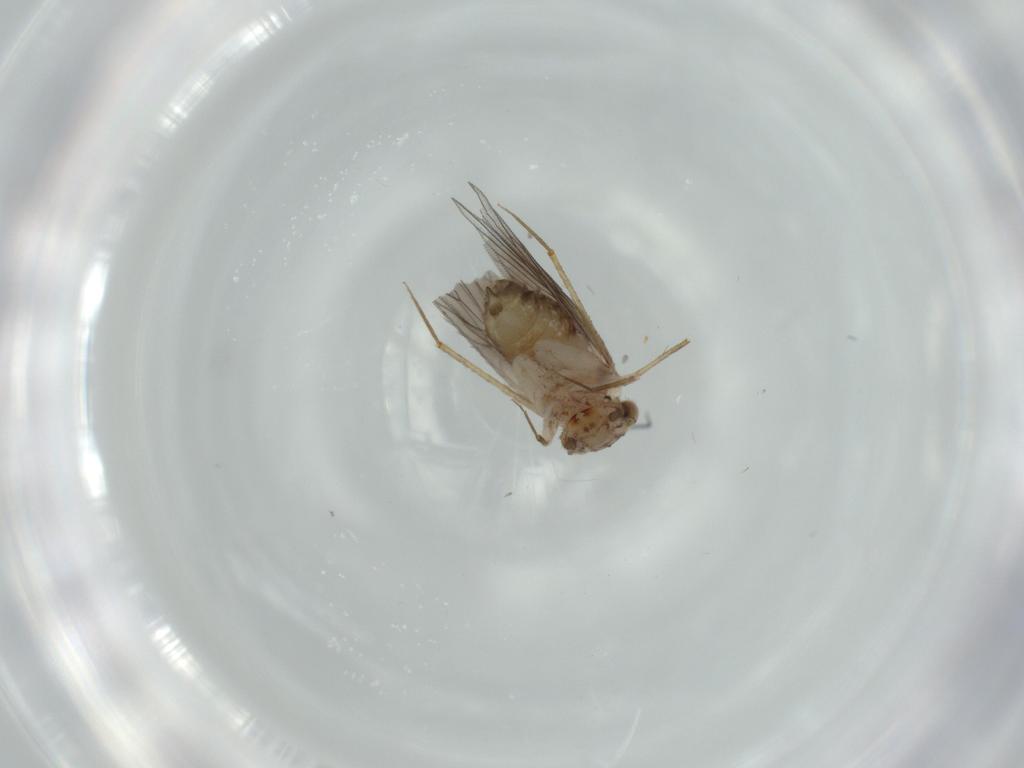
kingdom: Animalia
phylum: Arthropoda
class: Insecta
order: Psocodea
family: Lepidopsocidae
